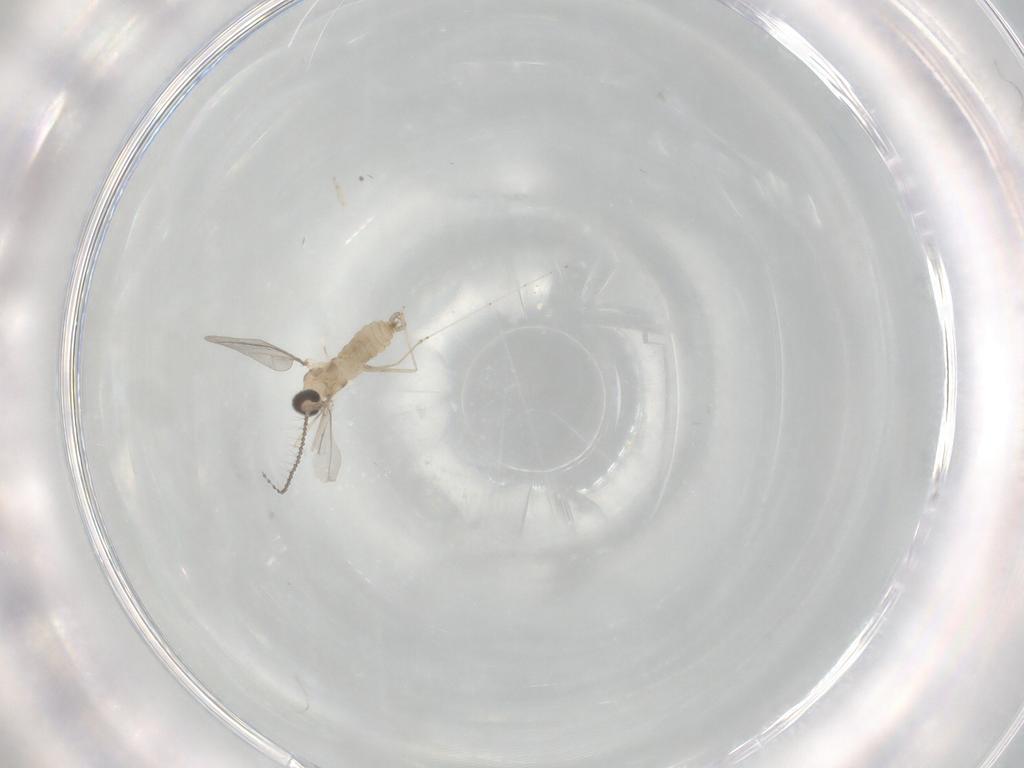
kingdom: Animalia
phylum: Arthropoda
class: Insecta
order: Diptera
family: Cecidomyiidae
